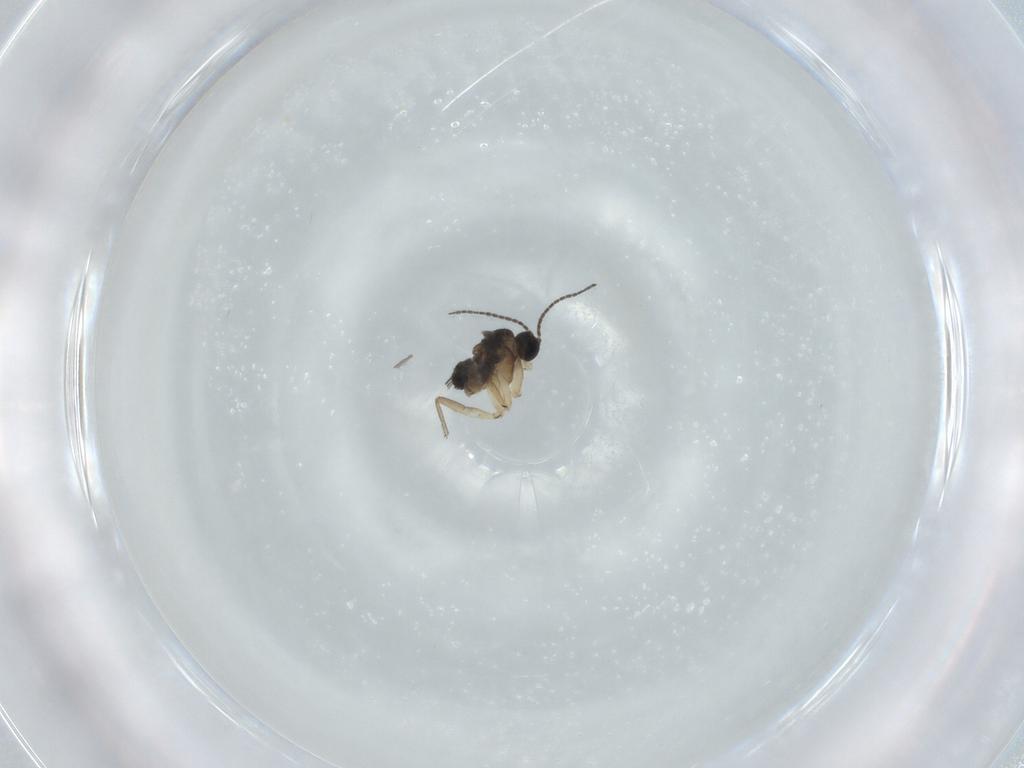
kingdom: Animalia
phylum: Arthropoda
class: Insecta
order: Diptera
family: Sciaridae
